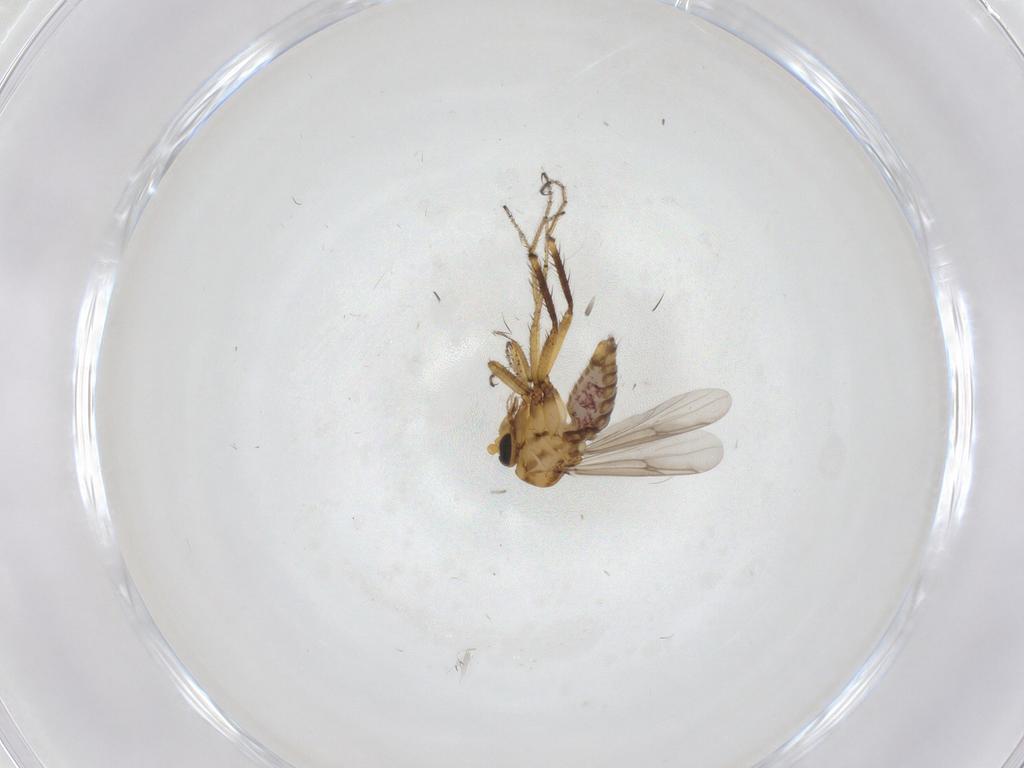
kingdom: Animalia
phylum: Arthropoda
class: Insecta
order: Diptera
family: Ceratopogonidae
